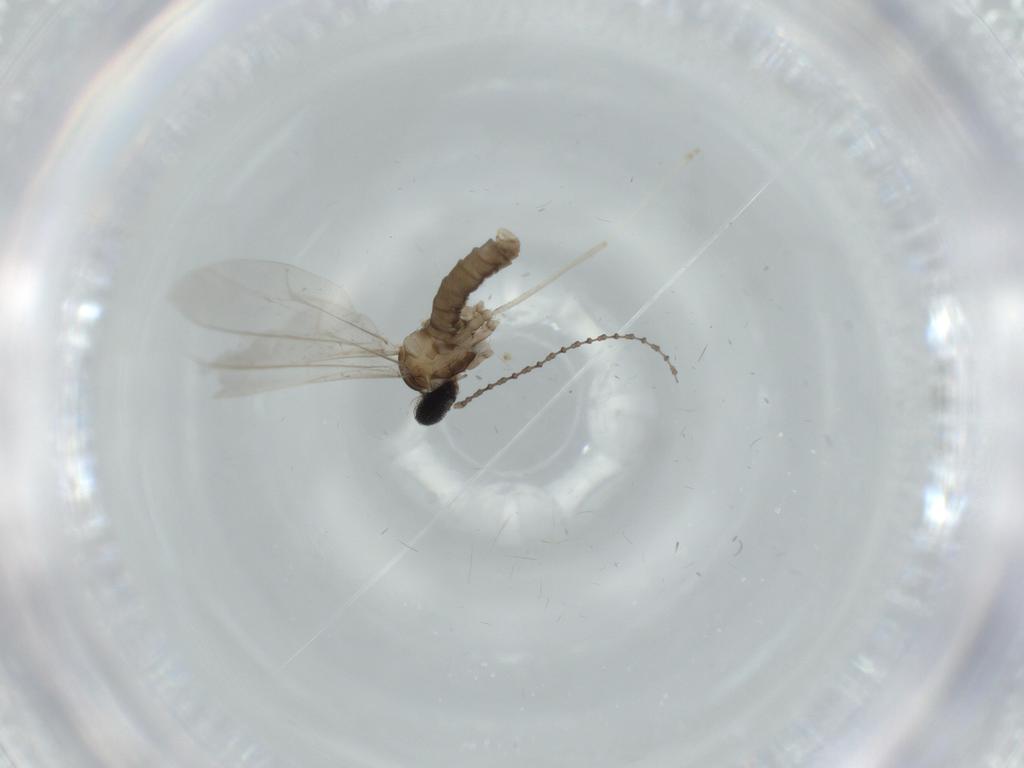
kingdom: Animalia
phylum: Arthropoda
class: Insecta
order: Diptera
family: Cecidomyiidae
